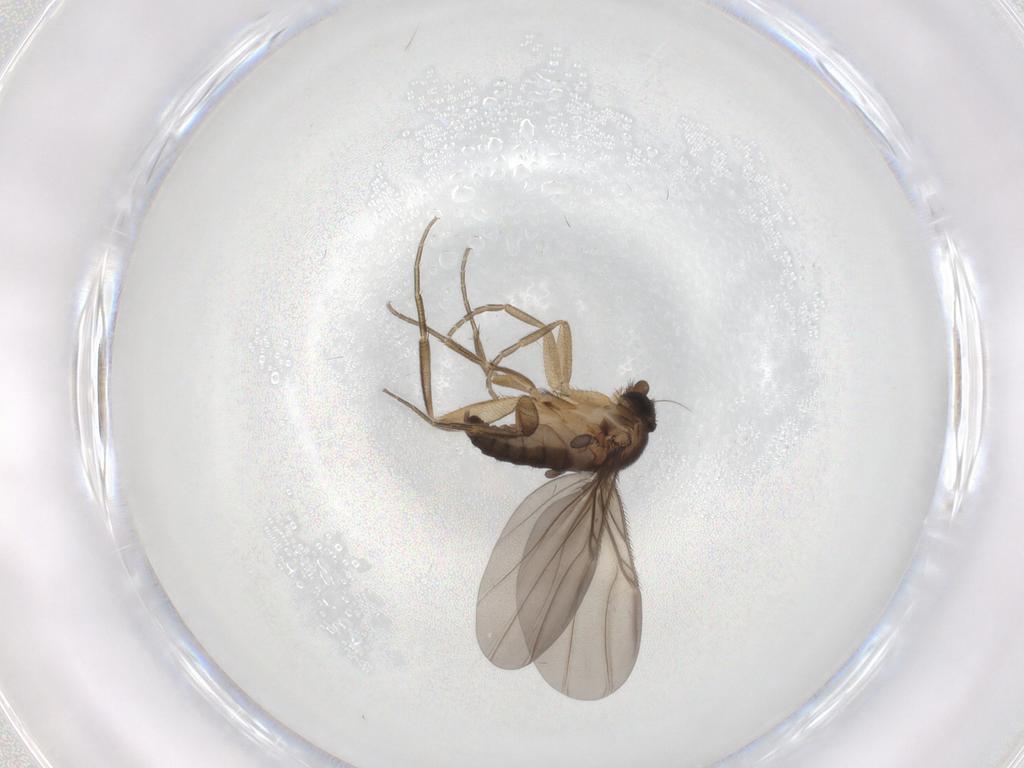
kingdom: Animalia
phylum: Arthropoda
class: Insecta
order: Diptera
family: Phoridae
